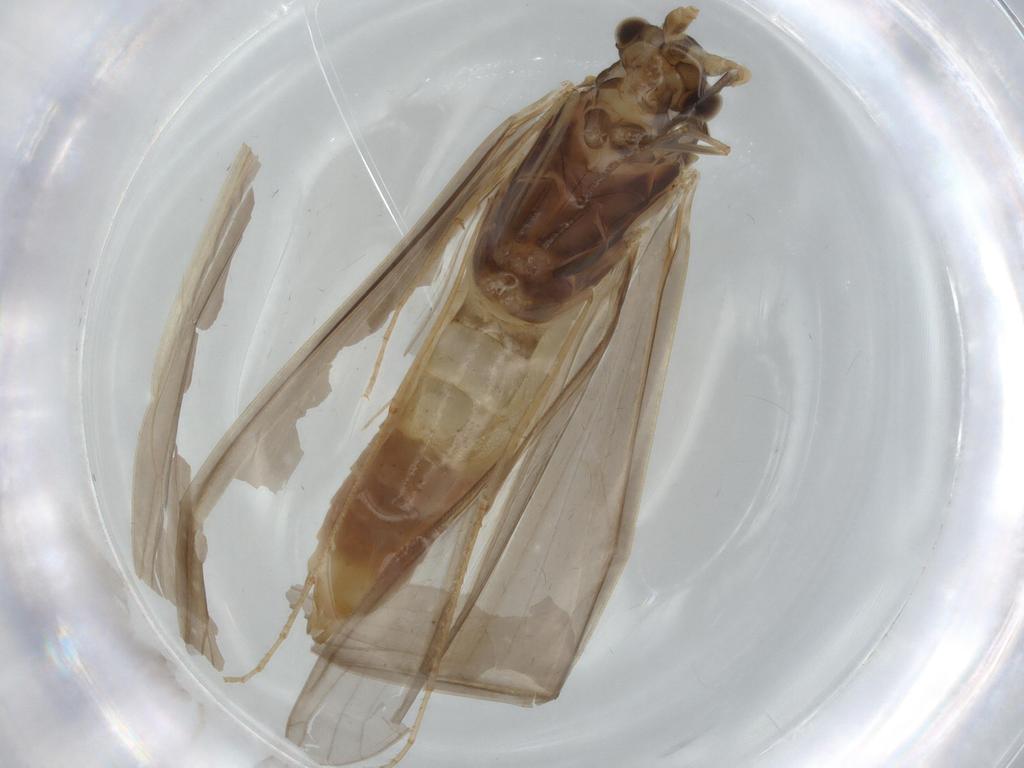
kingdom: Animalia
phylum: Arthropoda
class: Insecta
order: Trichoptera
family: Leptoceridae
